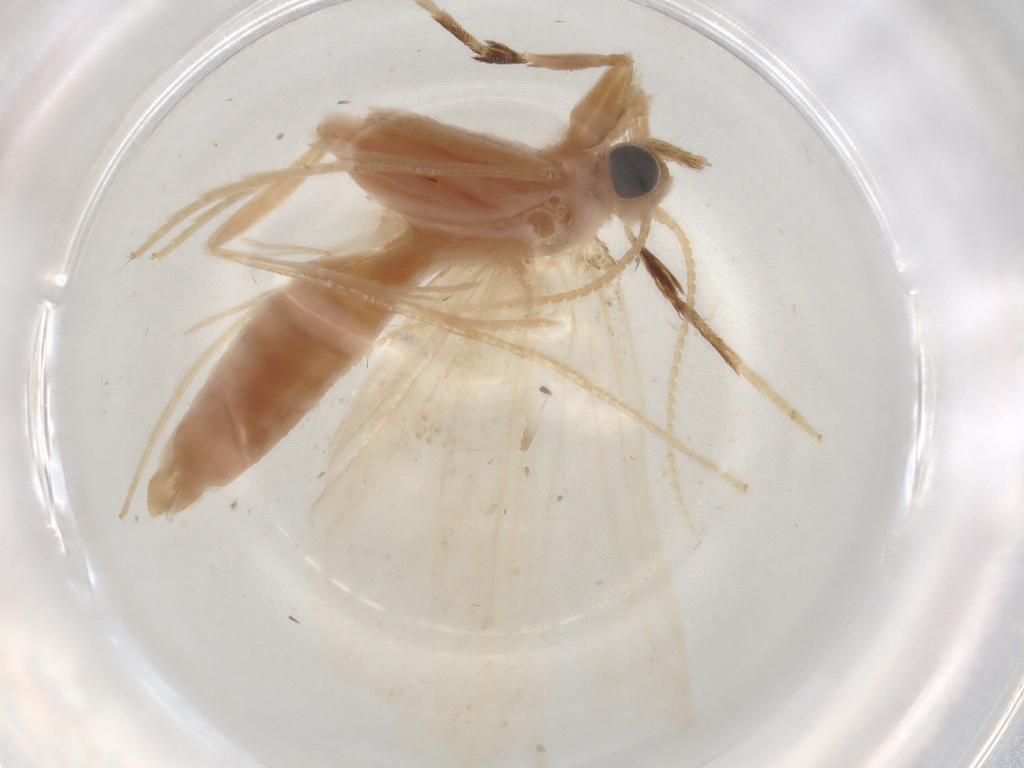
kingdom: Animalia
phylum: Arthropoda
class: Insecta
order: Lepidoptera
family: Crambidae
